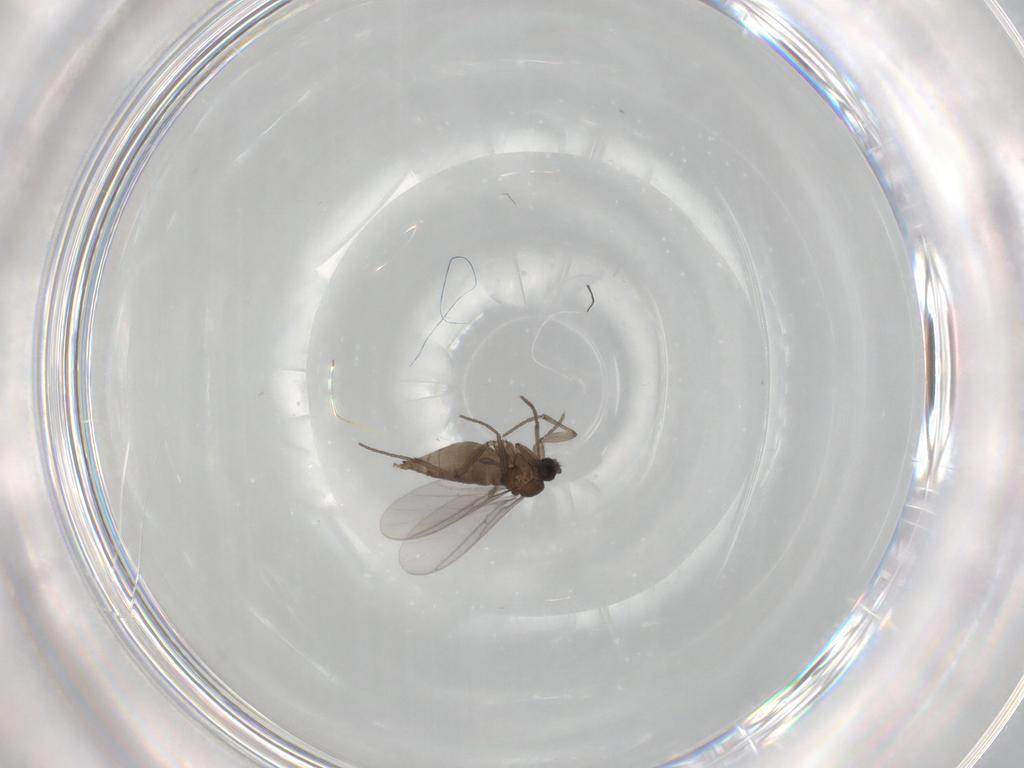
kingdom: Animalia
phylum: Arthropoda
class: Insecta
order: Diptera
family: Sciaridae
